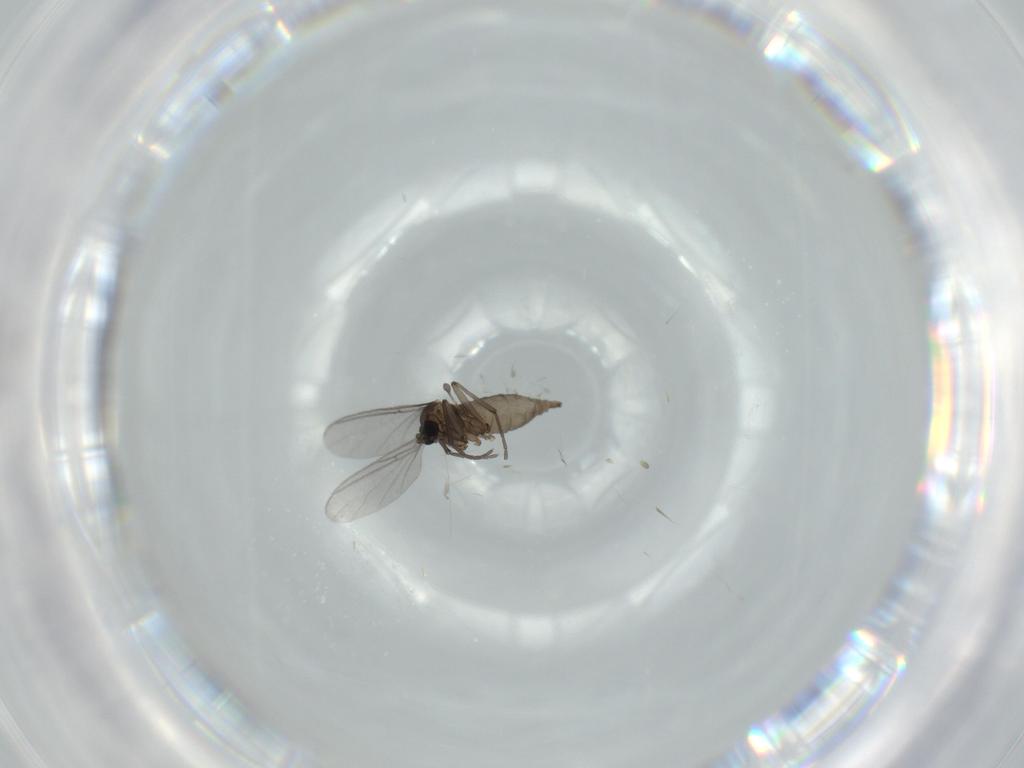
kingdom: Animalia
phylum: Arthropoda
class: Insecta
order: Diptera
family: Sciaridae
